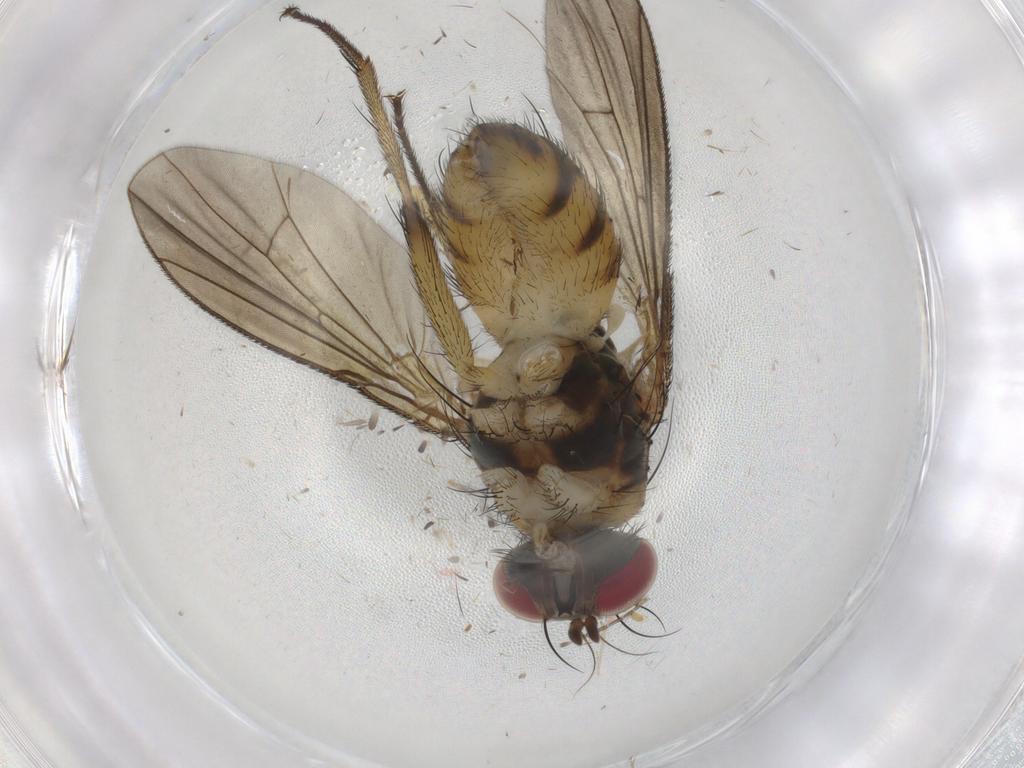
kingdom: Animalia
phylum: Arthropoda
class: Insecta
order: Diptera
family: Muscidae
